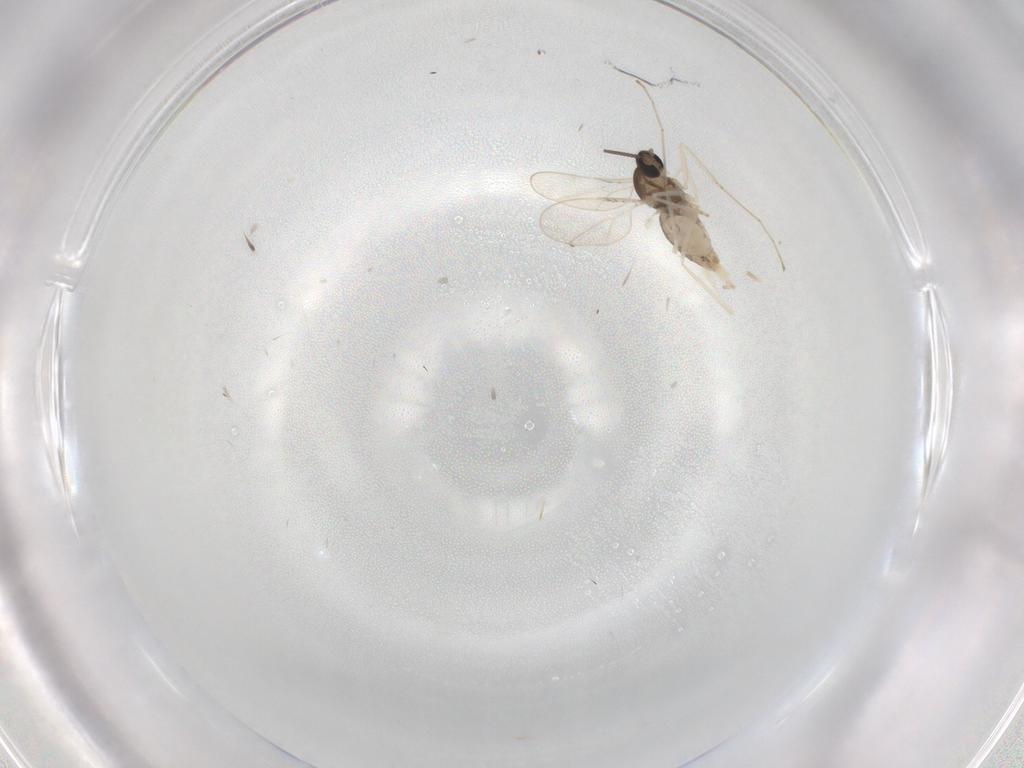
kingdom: Animalia
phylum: Arthropoda
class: Insecta
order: Diptera
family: Cecidomyiidae
